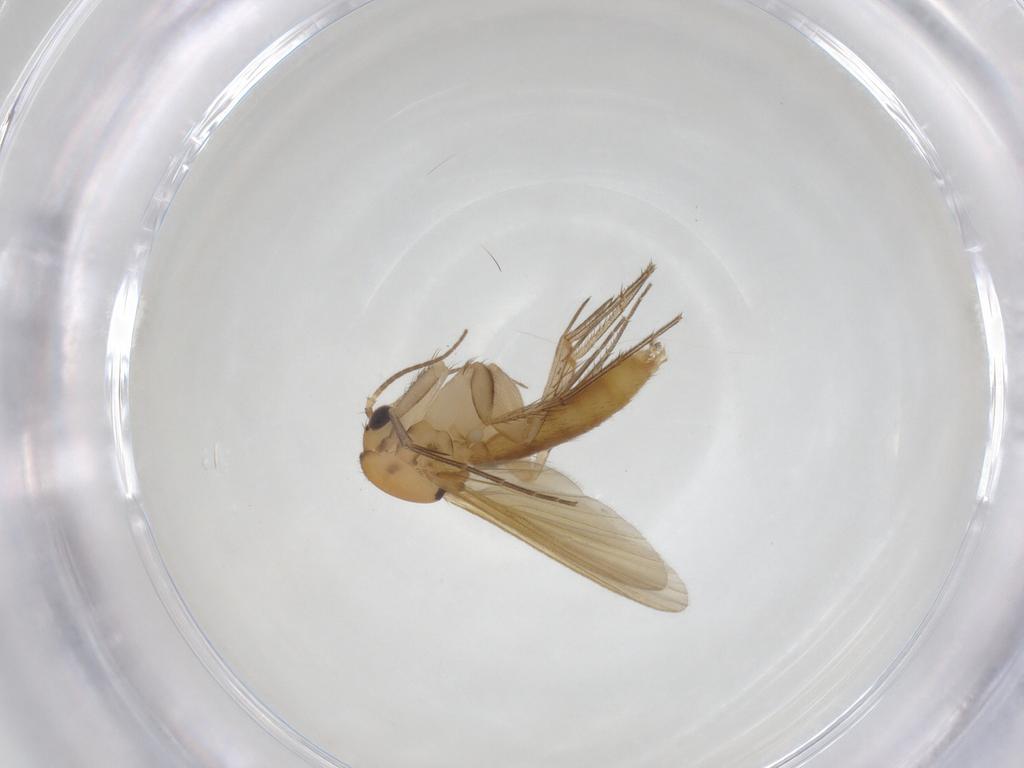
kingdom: Animalia
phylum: Arthropoda
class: Insecta
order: Diptera
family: Mycetophilidae
